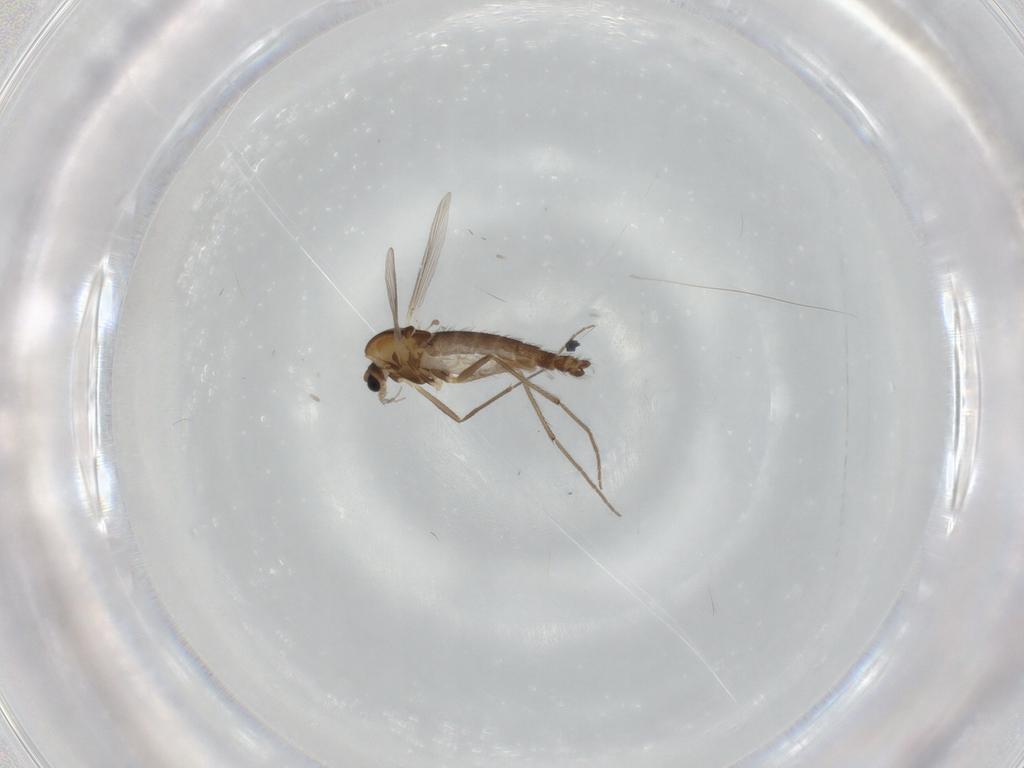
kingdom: Animalia
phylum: Arthropoda
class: Insecta
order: Diptera
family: Chironomidae
